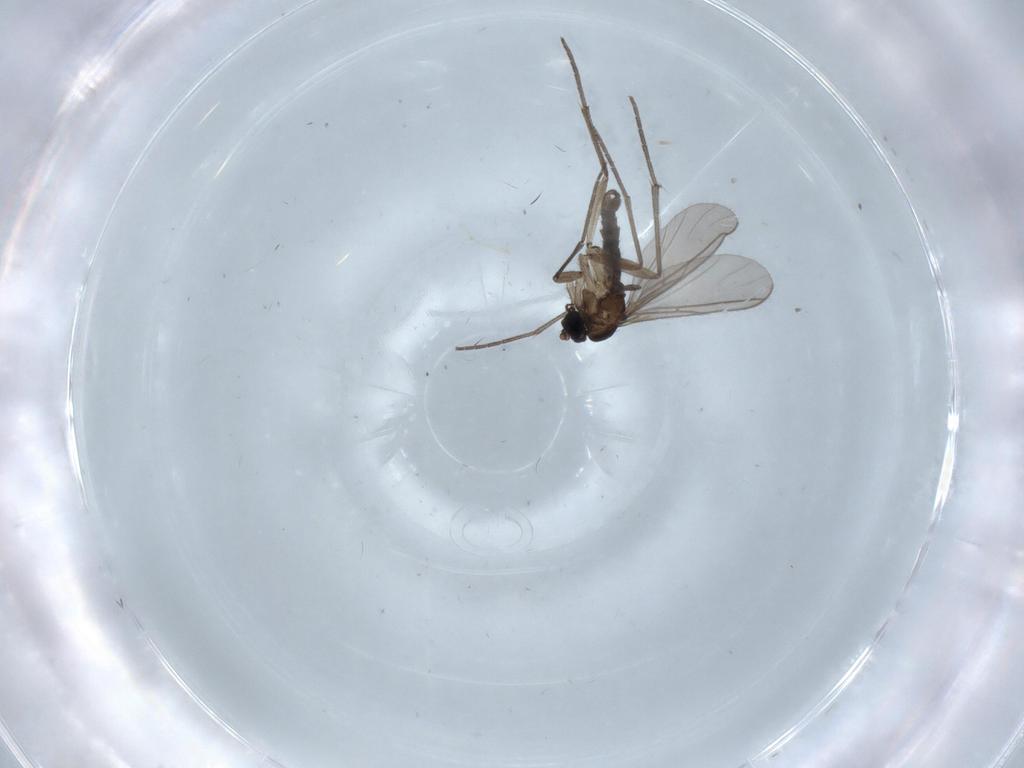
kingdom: Animalia
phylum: Arthropoda
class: Insecta
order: Diptera
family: Sciaridae
